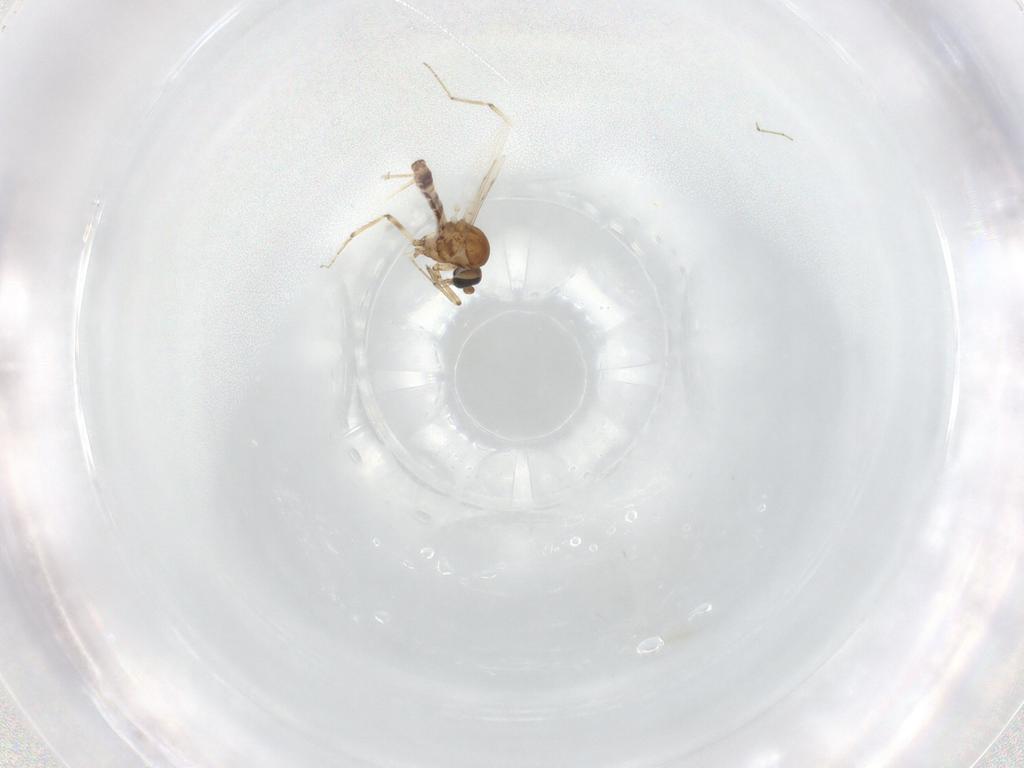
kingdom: Animalia
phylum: Arthropoda
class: Insecta
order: Diptera
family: Ceratopogonidae
